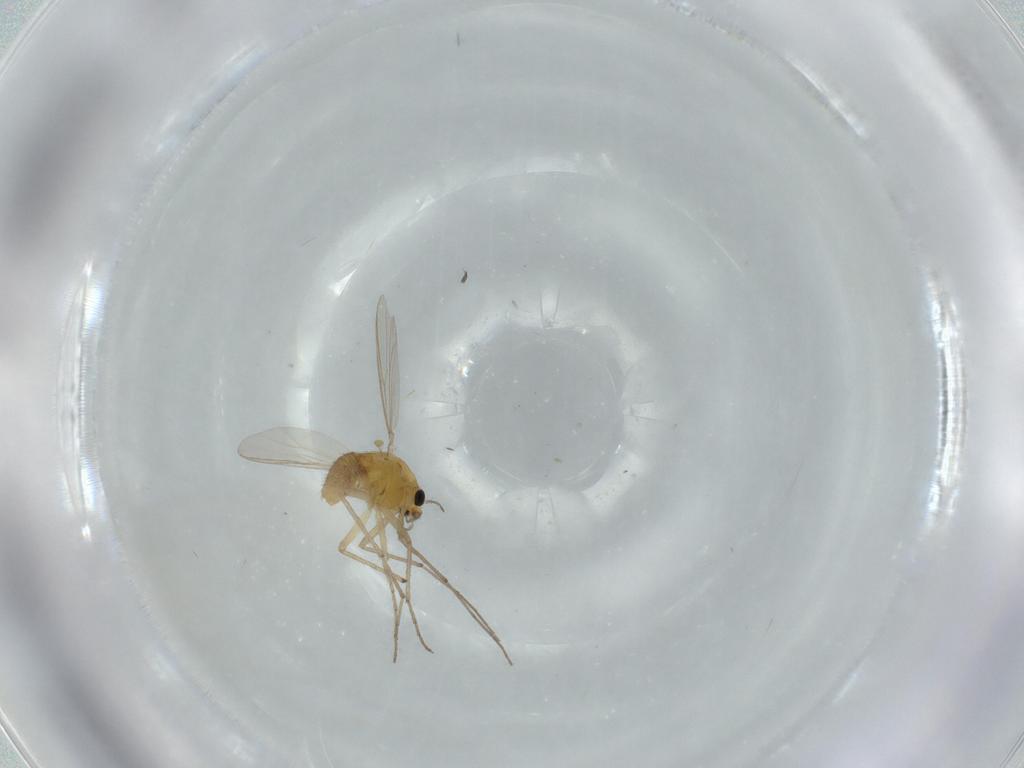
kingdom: Animalia
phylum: Arthropoda
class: Insecta
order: Diptera
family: Chironomidae
